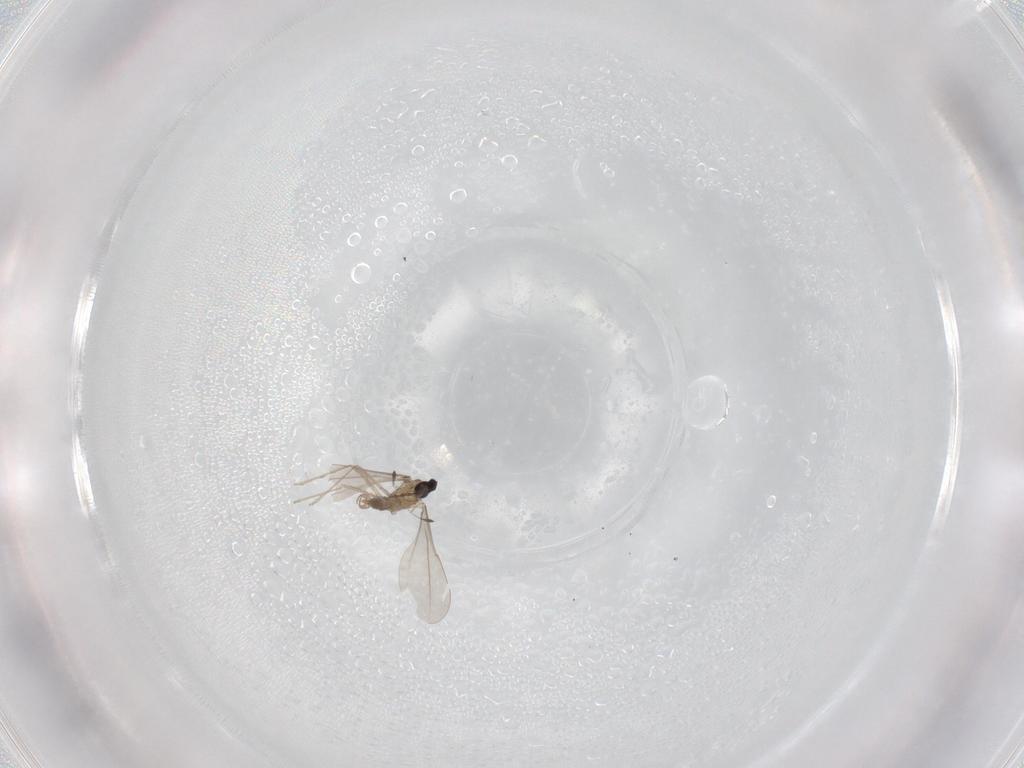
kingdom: Animalia
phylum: Arthropoda
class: Insecta
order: Diptera
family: Cecidomyiidae
